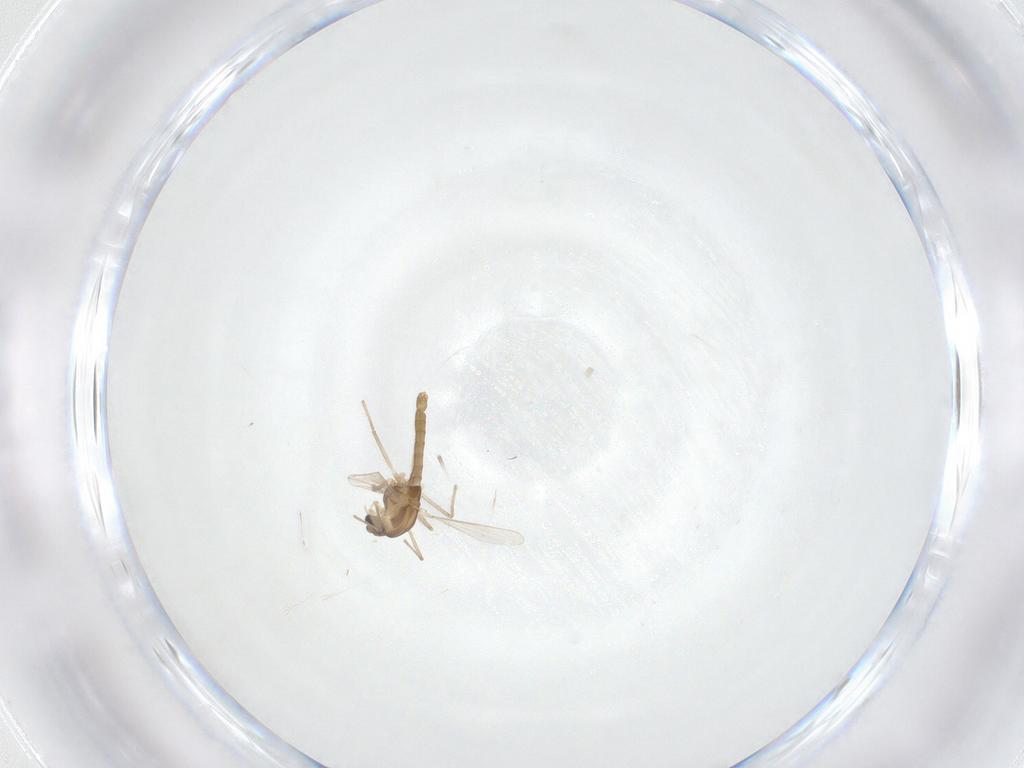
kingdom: Animalia
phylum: Arthropoda
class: Insecta
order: Diptera
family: Chironomidae
